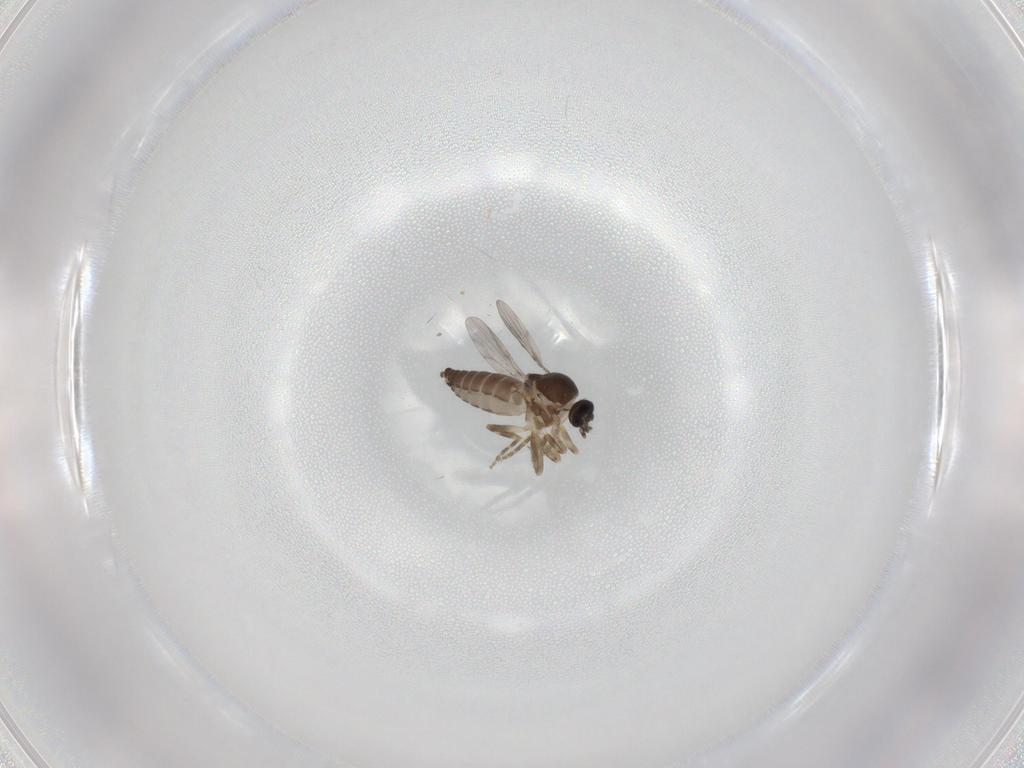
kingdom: Animalia
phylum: Arthropoda
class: Insecta
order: Diptera
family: Ceratopogonidae
